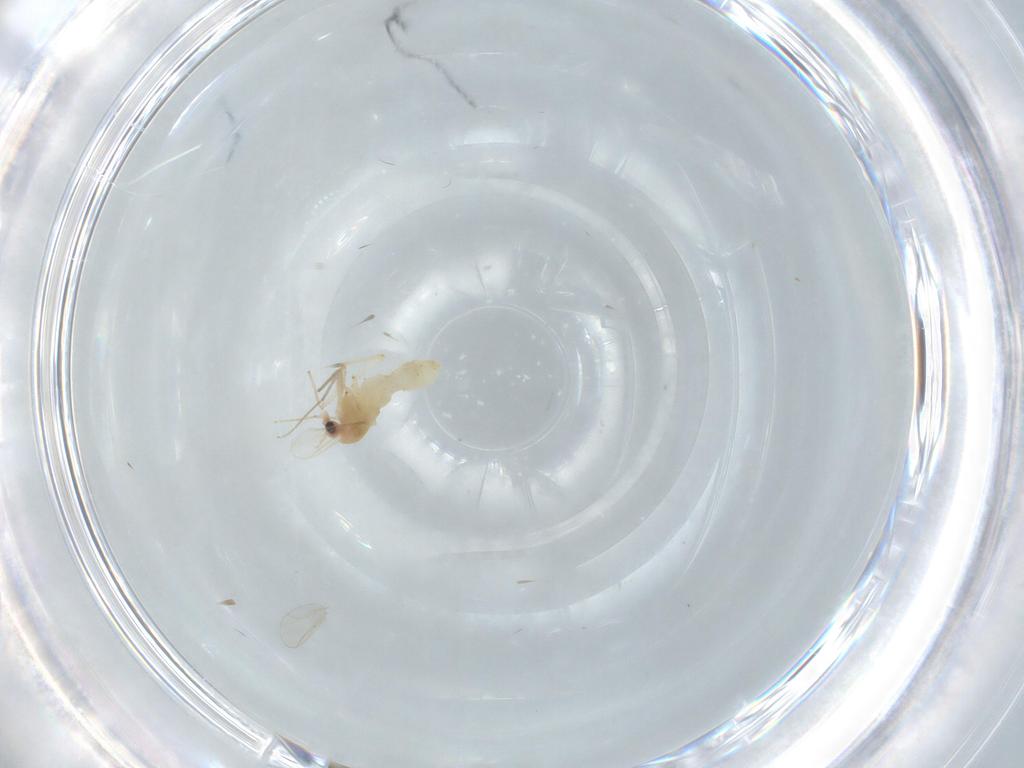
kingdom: Animalia
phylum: Arthropoda
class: Insecta
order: Diptera
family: Chironomidae
